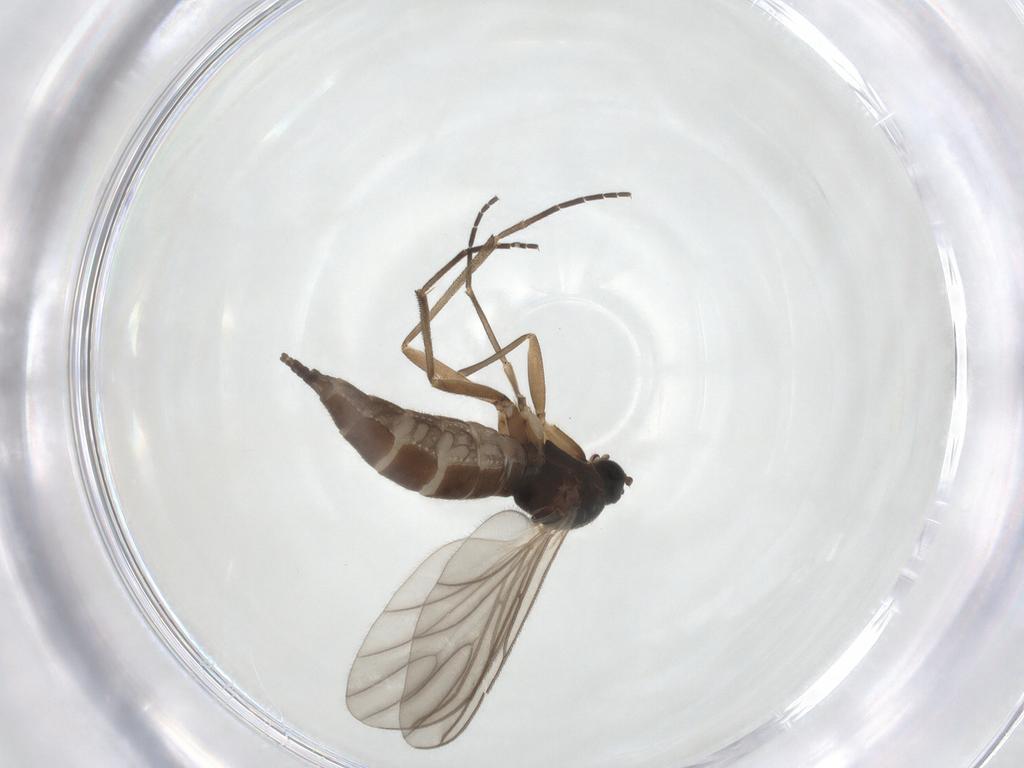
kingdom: Animalia
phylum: Arthropoda
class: Insecta
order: Diptera
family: Sciaridae
